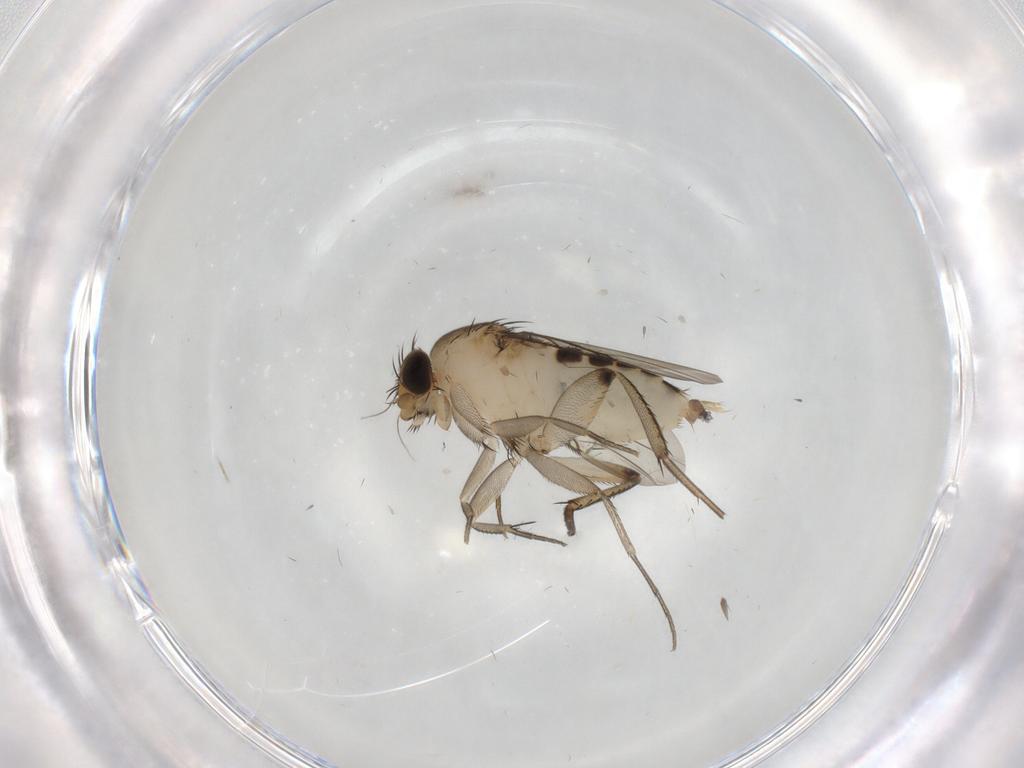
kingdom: Animalia
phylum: Arthropoda
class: Insecta
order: Diptera
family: Phoridae
